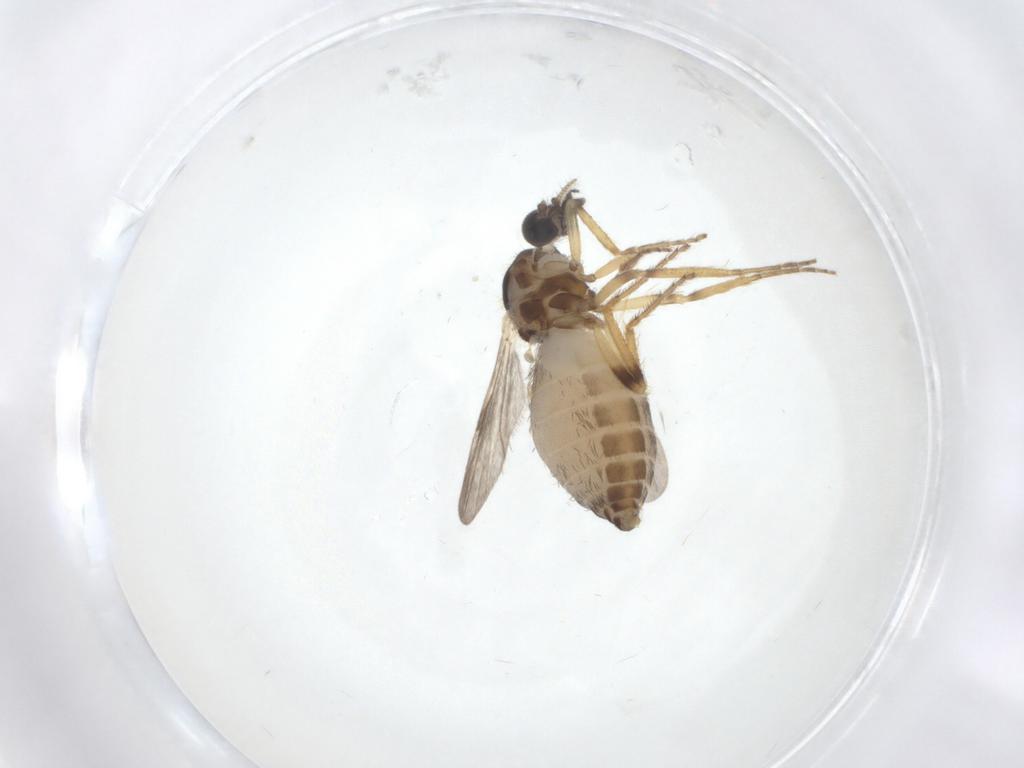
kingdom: Animalia
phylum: Arthropoda
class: Insecta
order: Diptera
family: Ceratopogonidae
